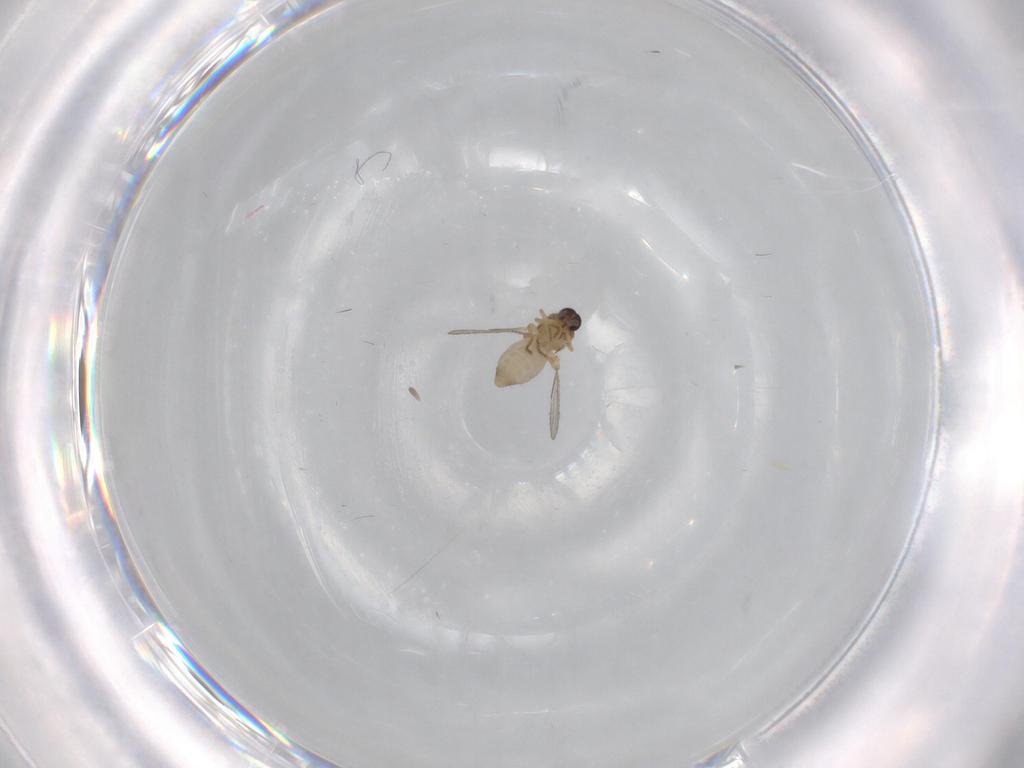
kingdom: Animalia
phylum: Arthropoda
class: Insecta
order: Diptera
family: Ceratopogonidae
